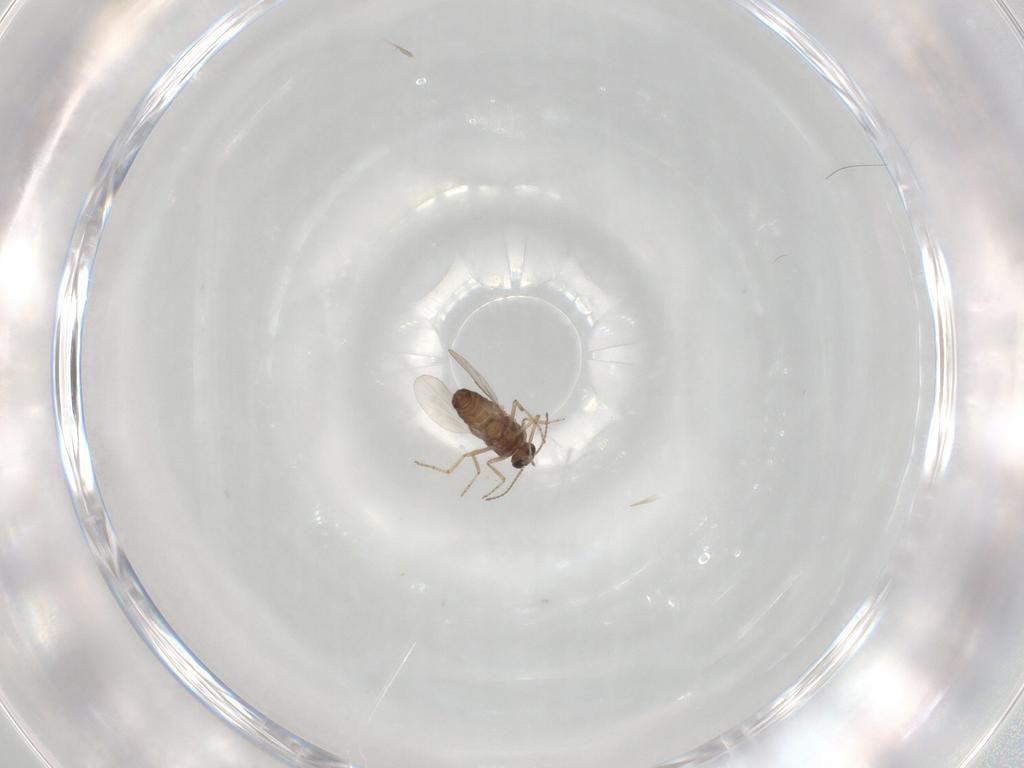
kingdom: Animalia
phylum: Arthropoda
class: Insecta
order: Diptera
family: Ceratopogonidae
